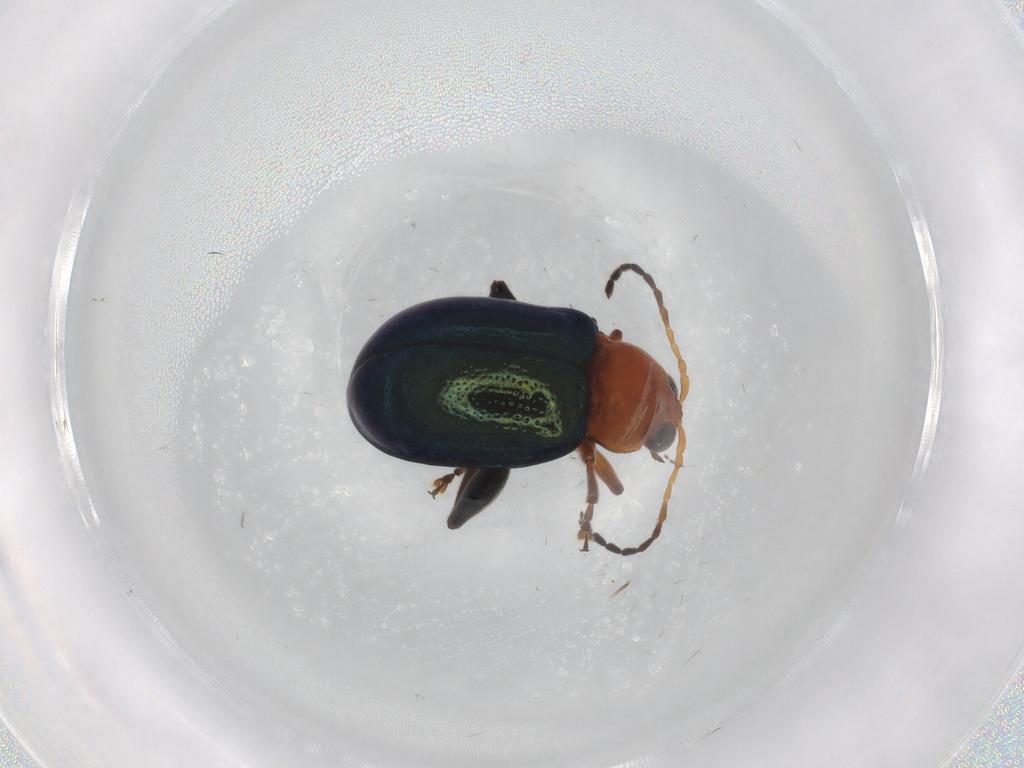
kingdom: Animalia
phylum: Arthropoda
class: Insecta
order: Coleoptera
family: Chrysomelidae
